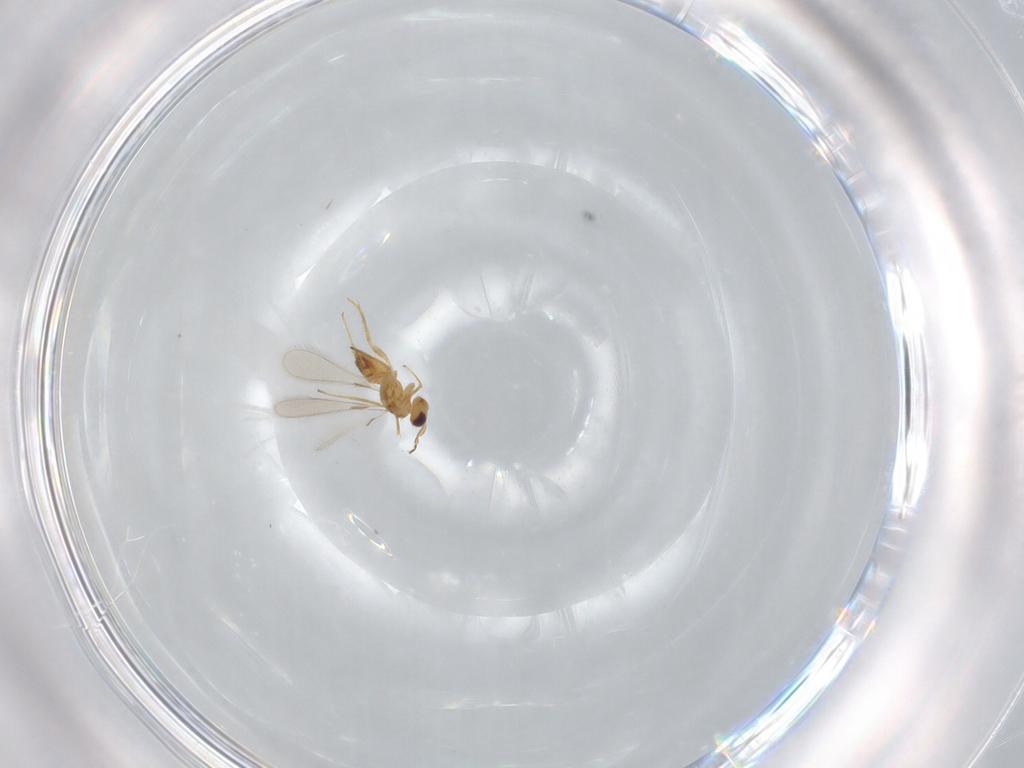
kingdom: Animalia
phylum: Arthropoda
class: Insecta
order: Hymenoptera
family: Mymaridae
